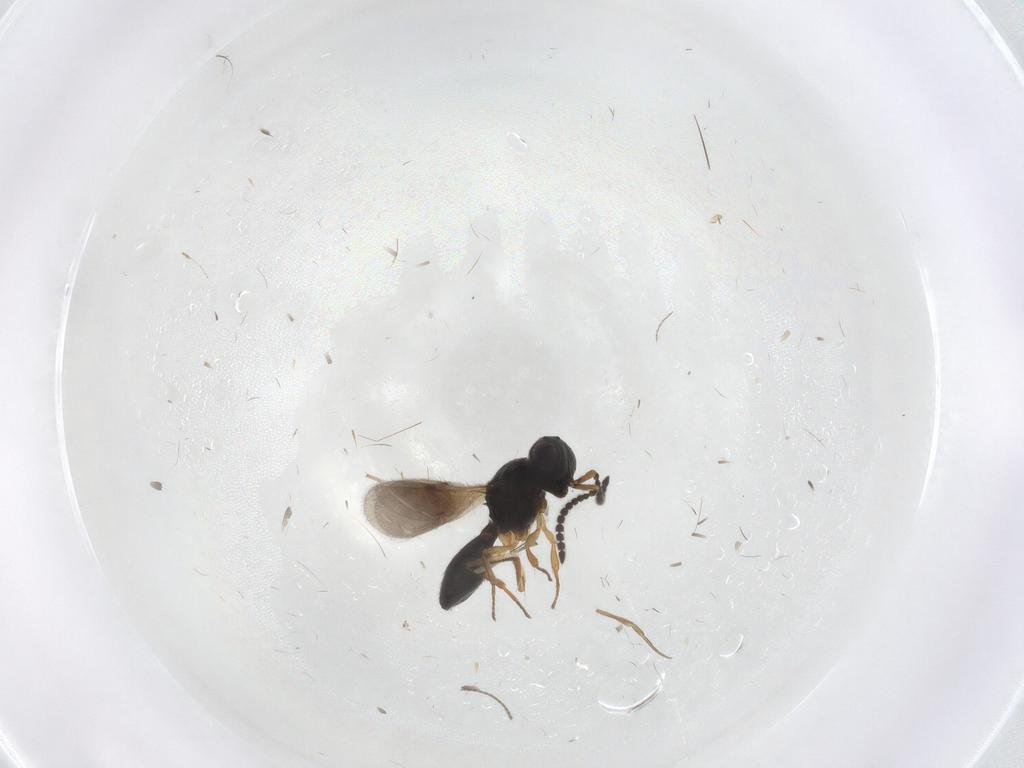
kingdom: Animalia
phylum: Arthropoda
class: Insecta
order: Hymenoptera
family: Scelionidae
